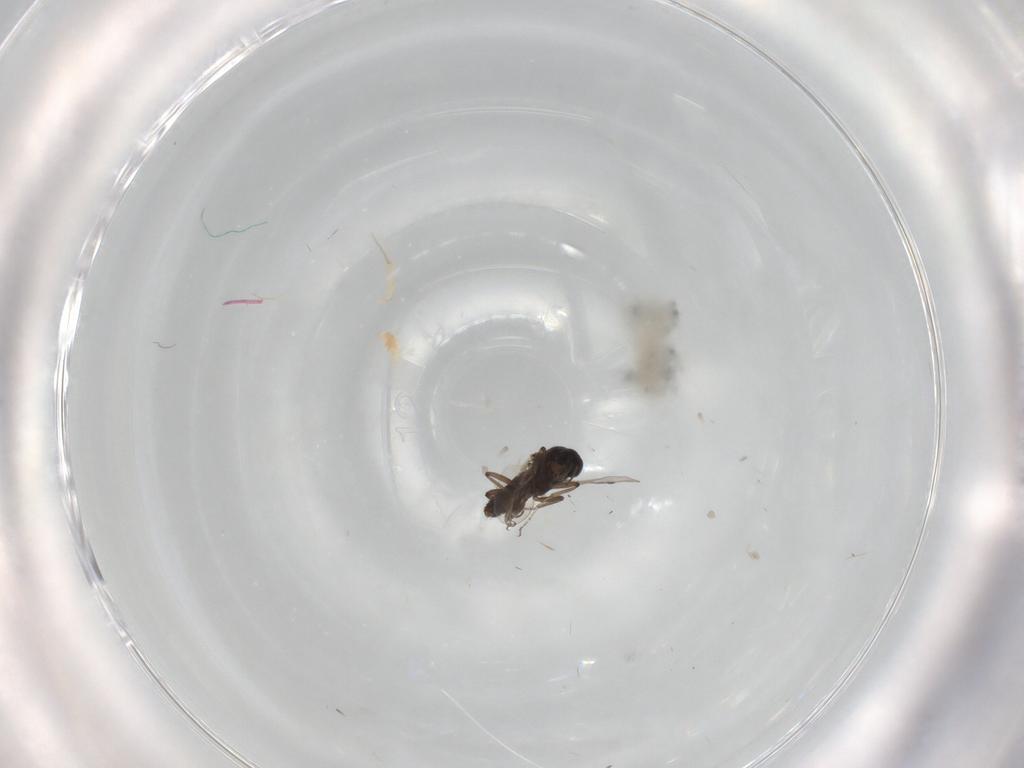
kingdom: Animalia
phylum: Arthropoda
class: Insecta
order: Diptera
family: Ceratopogonidae
